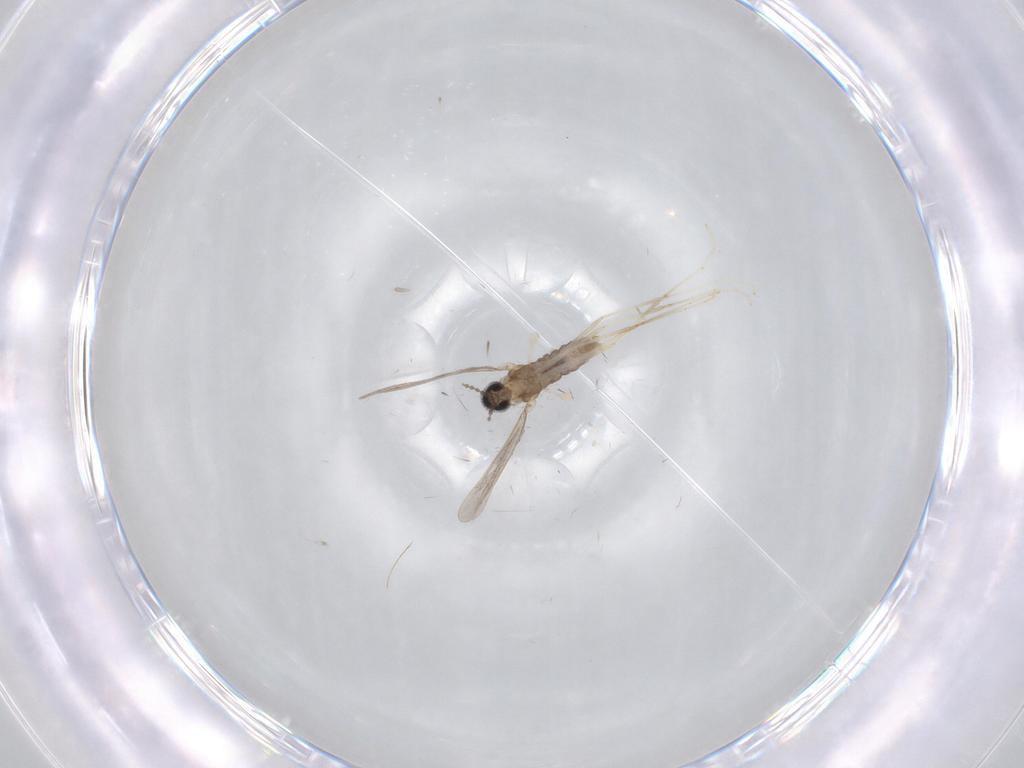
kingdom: Animalia
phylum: Arthropoda
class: Insecta
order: Diptera
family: Cecidomyiidae
